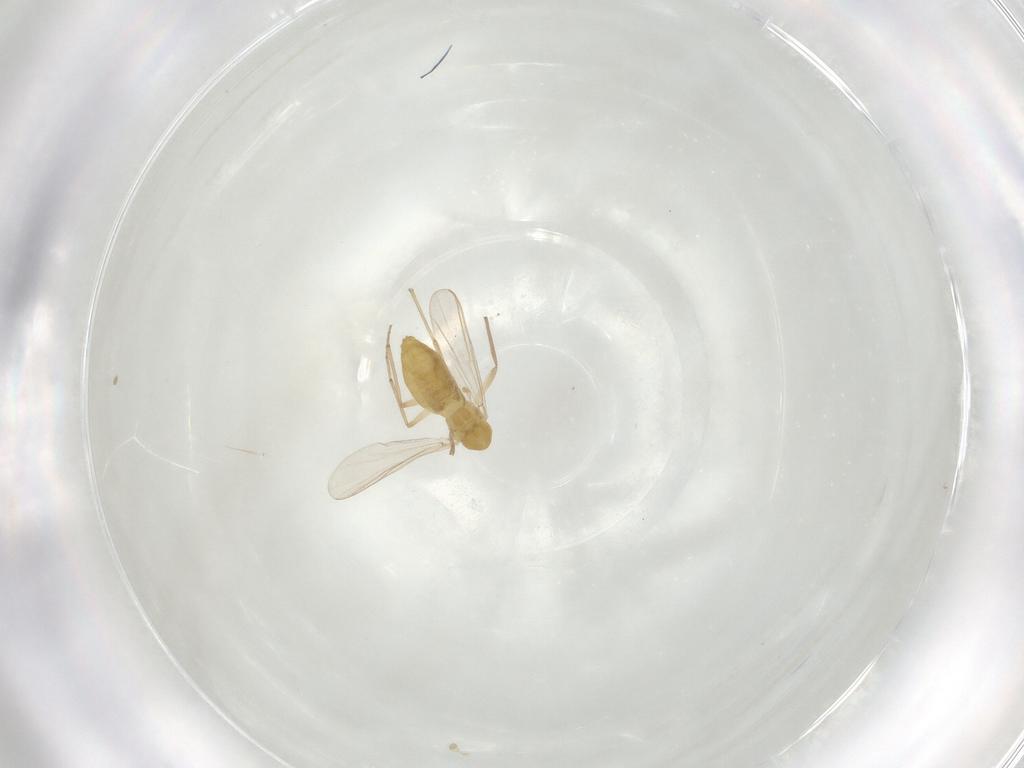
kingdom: Animalia
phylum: Arthropoda
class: Insecta
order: Diptera
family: Chironomidae
